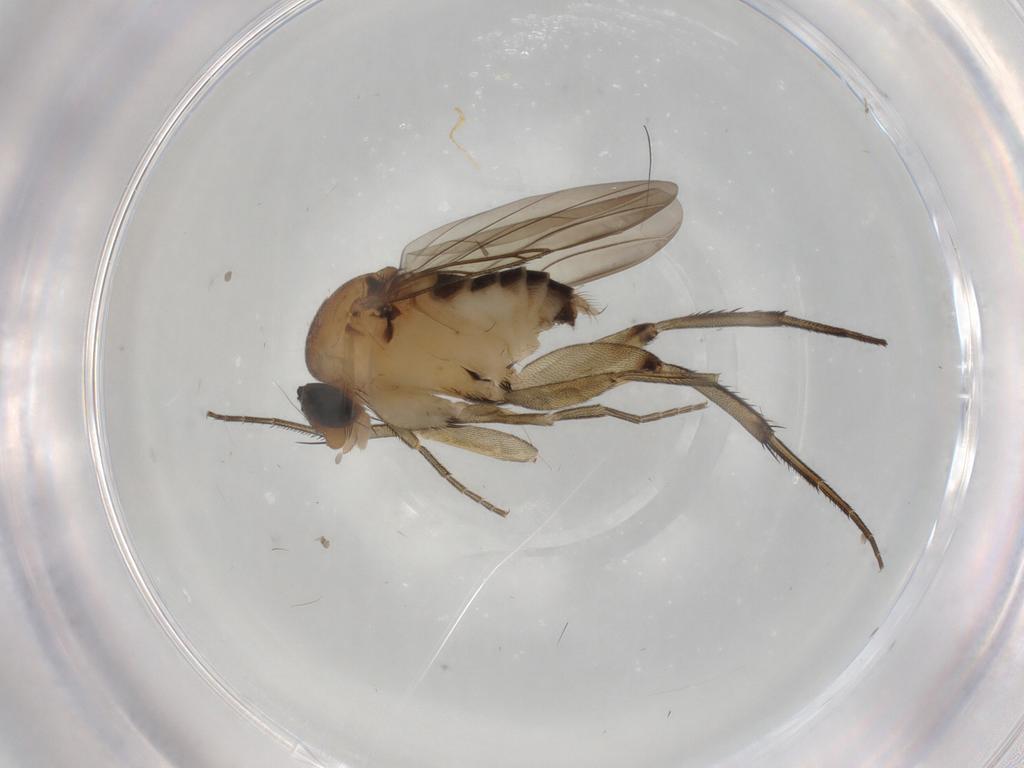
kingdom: Animalia
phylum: Arthropoda
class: Insecta
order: Diptera
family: Phoridae
